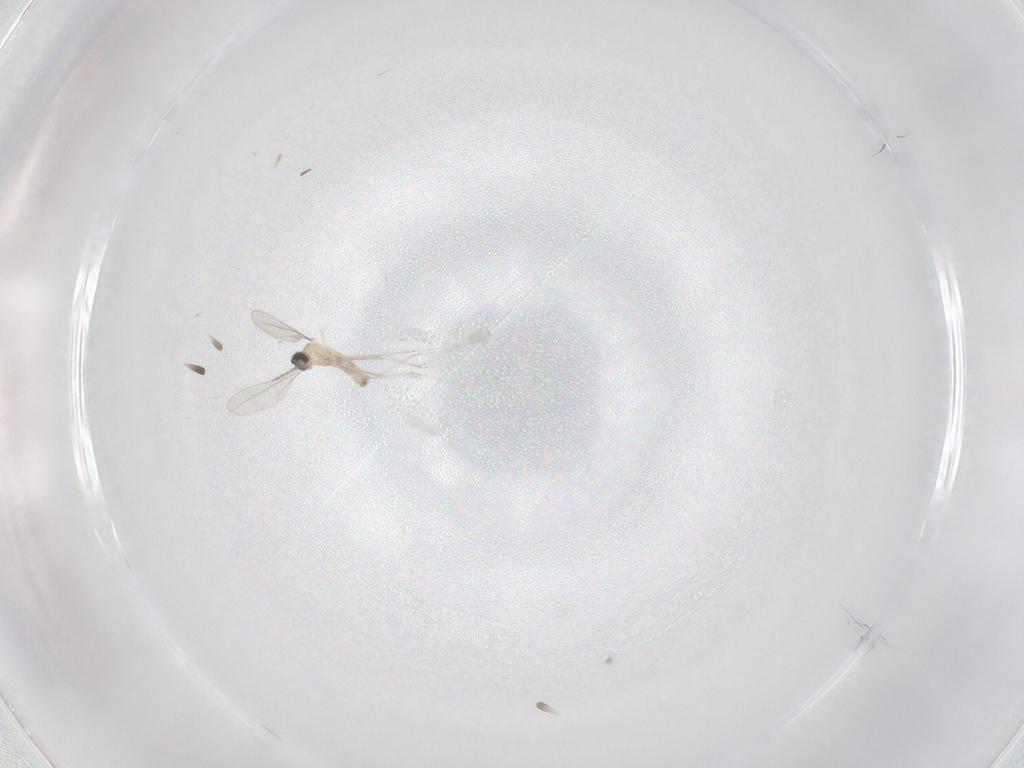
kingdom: Animalia
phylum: Arthropoda
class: Insecta
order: Diptera
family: Cecidomyiidae
